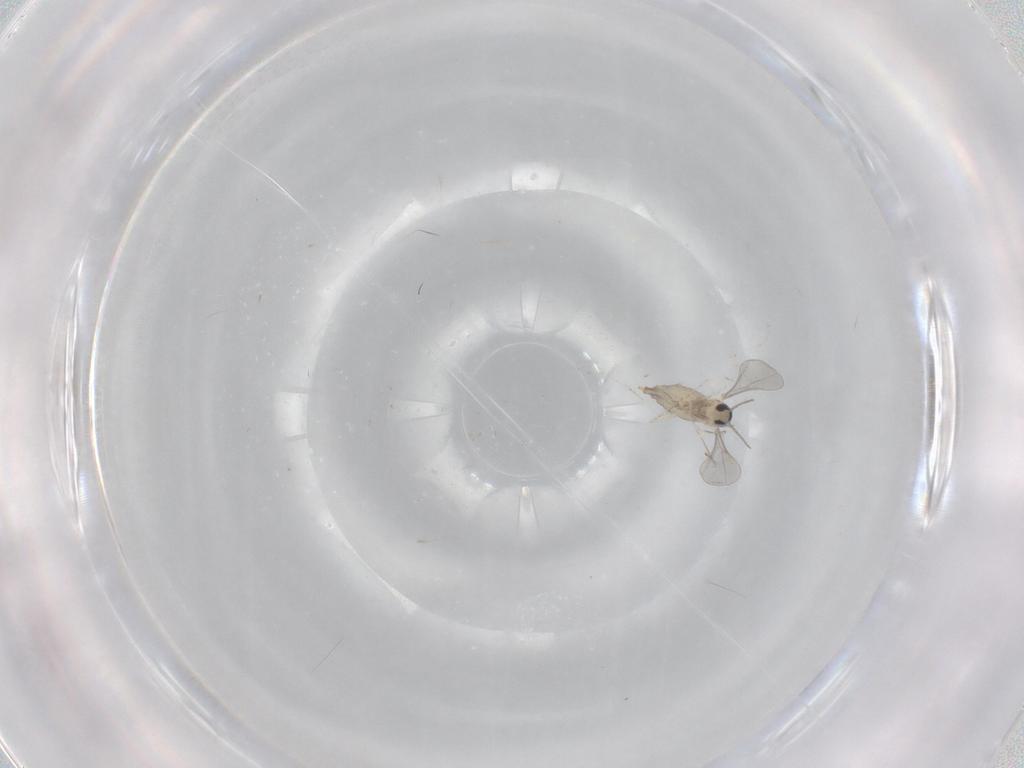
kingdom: Animalia
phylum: Arthropoda
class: Insecta
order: Diptera
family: Cecidomyiidae
